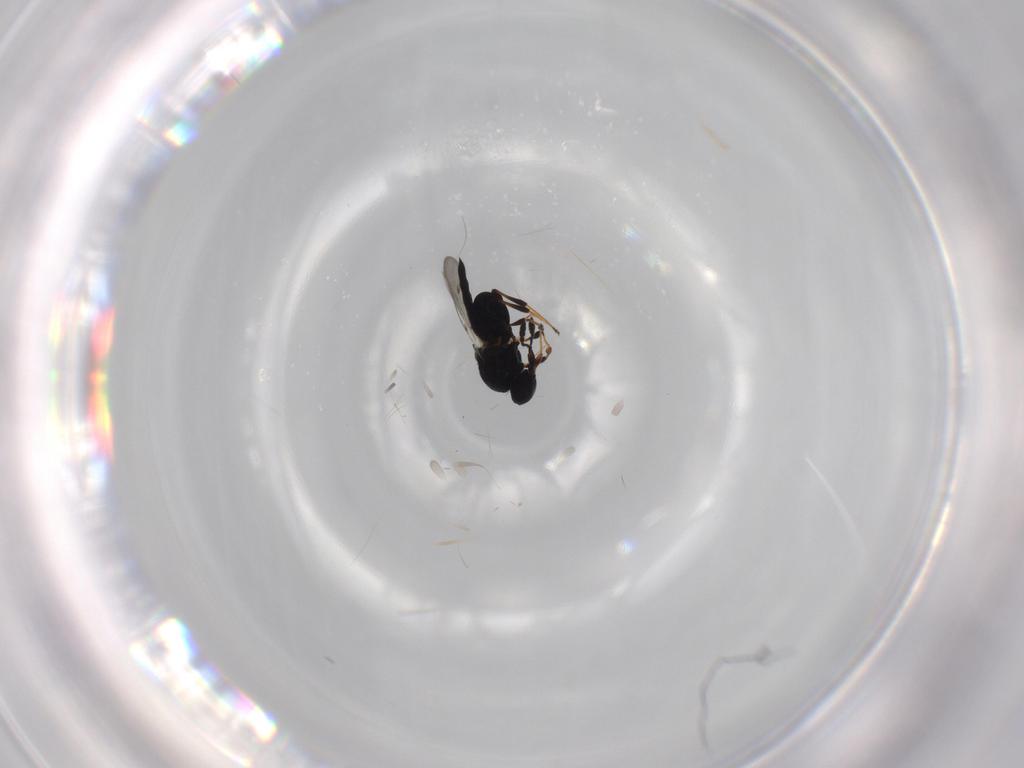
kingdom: Animalia
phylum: Arthropoda
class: Insecta
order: Hymenoptera
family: Platygastridae
